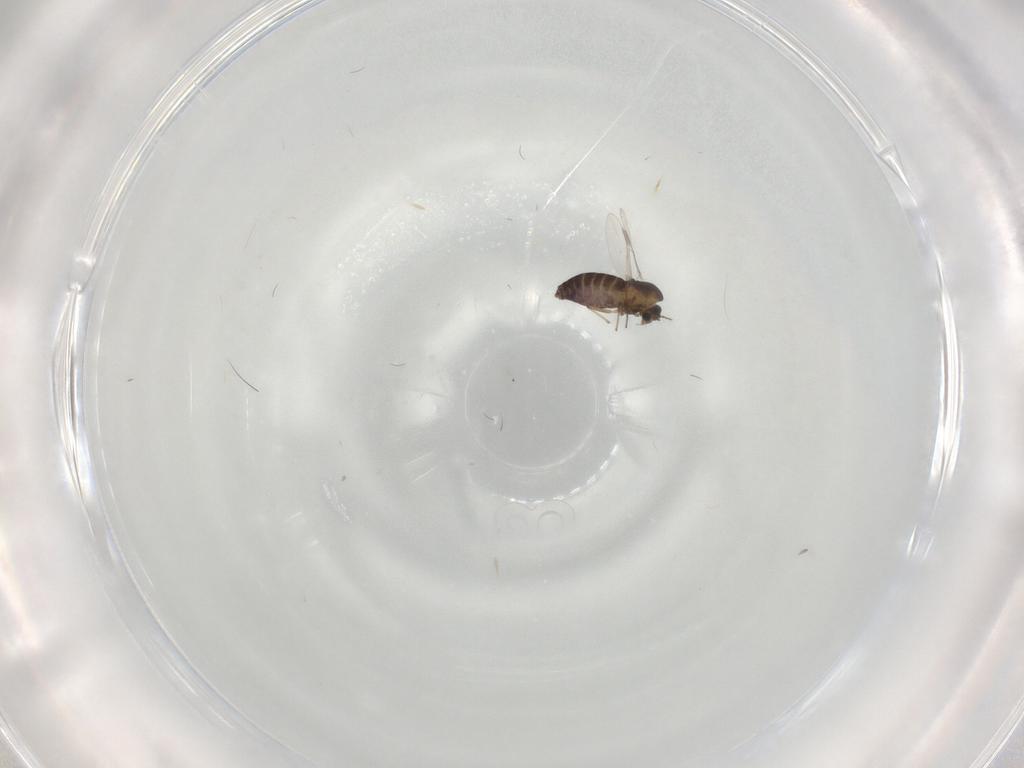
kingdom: Animalia
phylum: Arthropoda
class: Insecta
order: Diptera
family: Chironomidae
